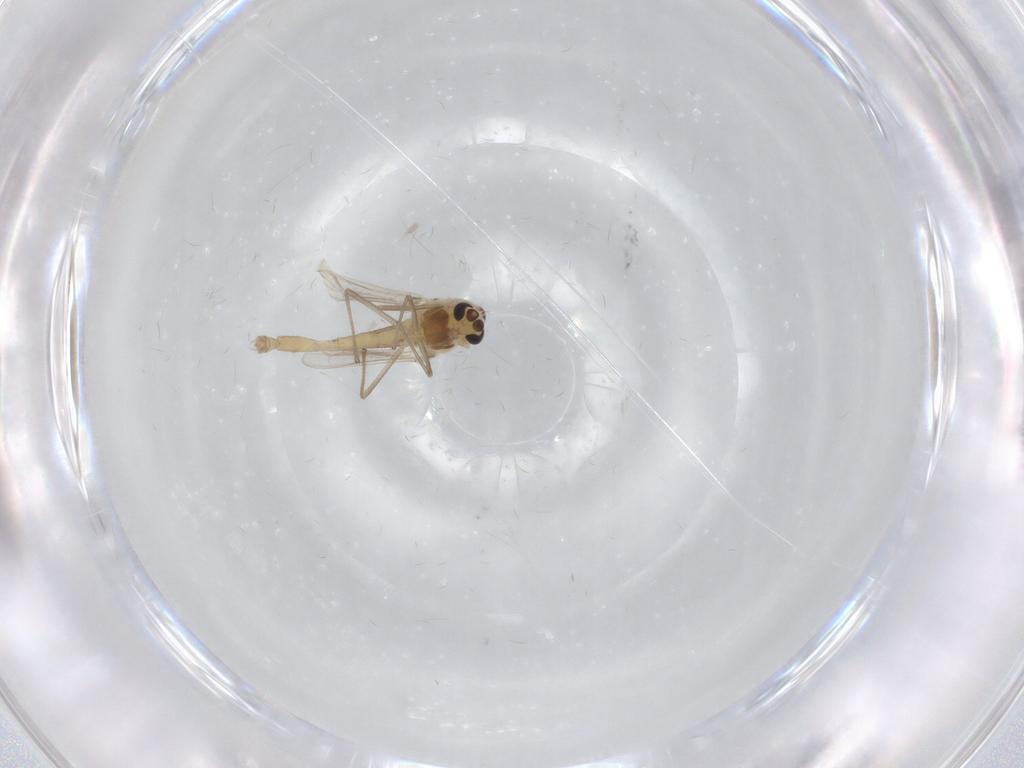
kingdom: Animalia
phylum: Arthropoda
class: Insecta
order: Diptera
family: Chironomidae
